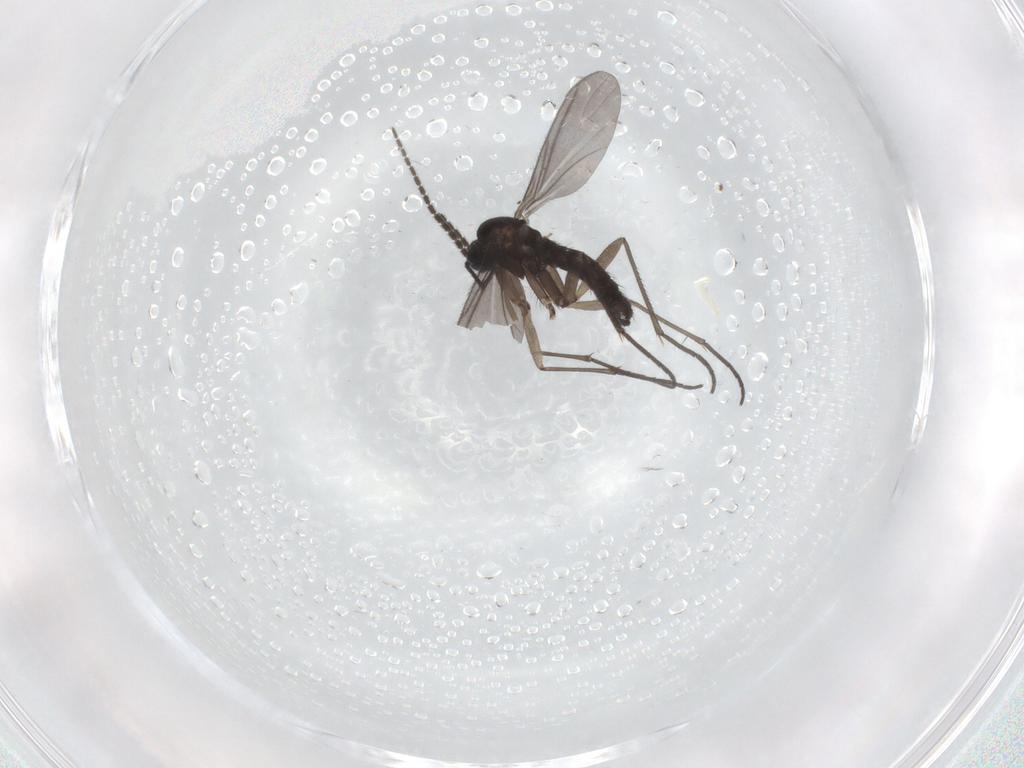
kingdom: Animalia
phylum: Arthropoda
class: Insecta
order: Diptera
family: Sciaridae
